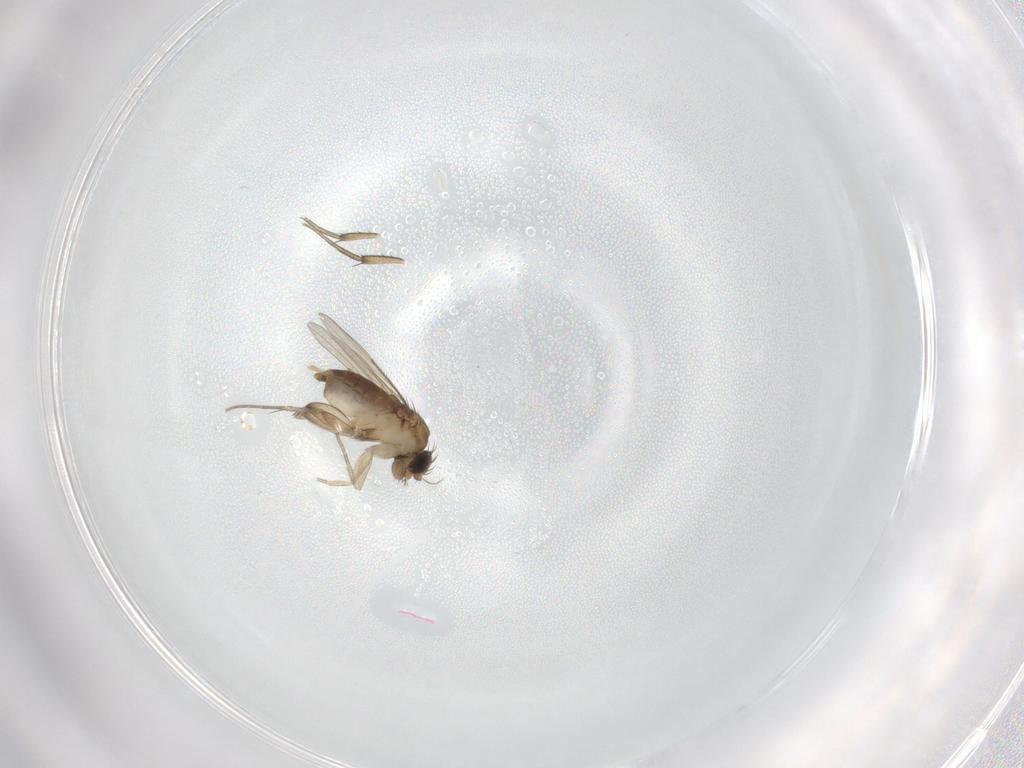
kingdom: Animalia
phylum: Arthropoda
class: Insecta
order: Diptera
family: Phoridae
